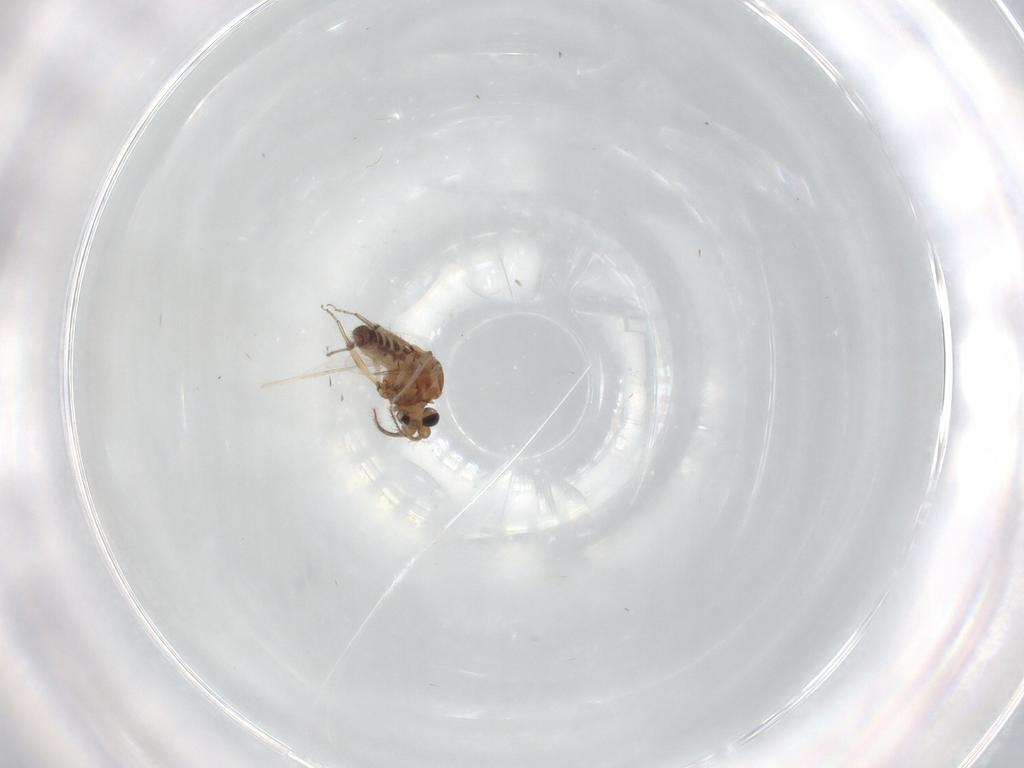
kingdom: Animalia
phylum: Arthropoda
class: Insecta
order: Diptera
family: Ceratopogonidae
